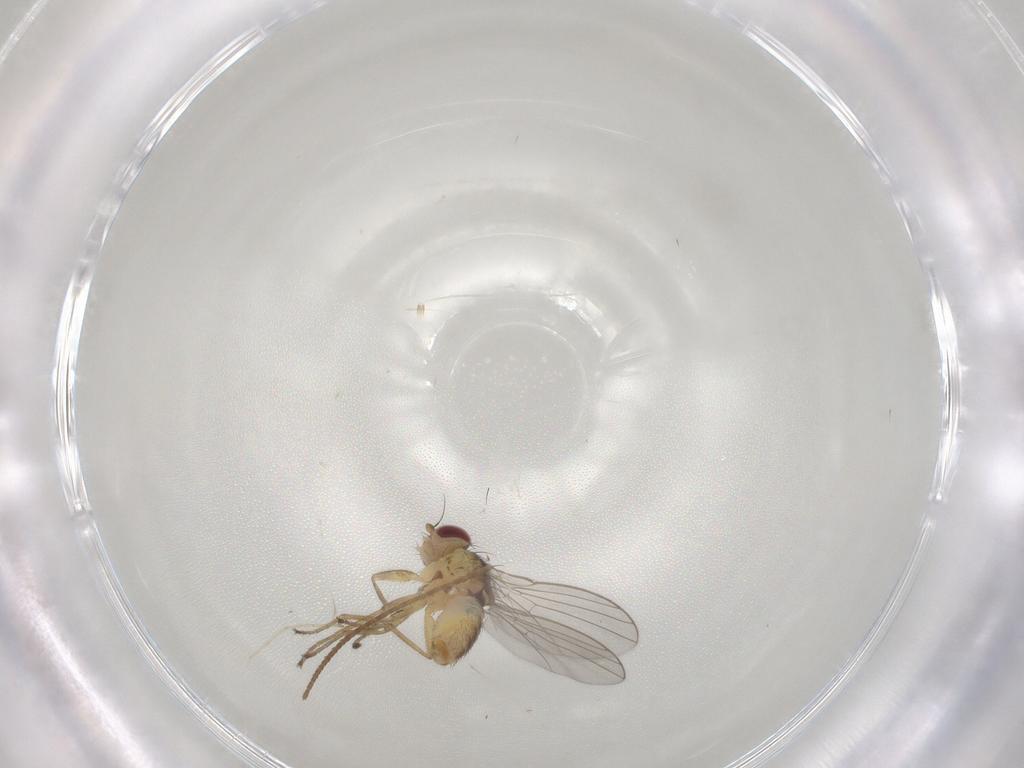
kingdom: Animalia
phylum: Arthropoda
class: Insecta
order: Diptera
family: Agromyzidae
